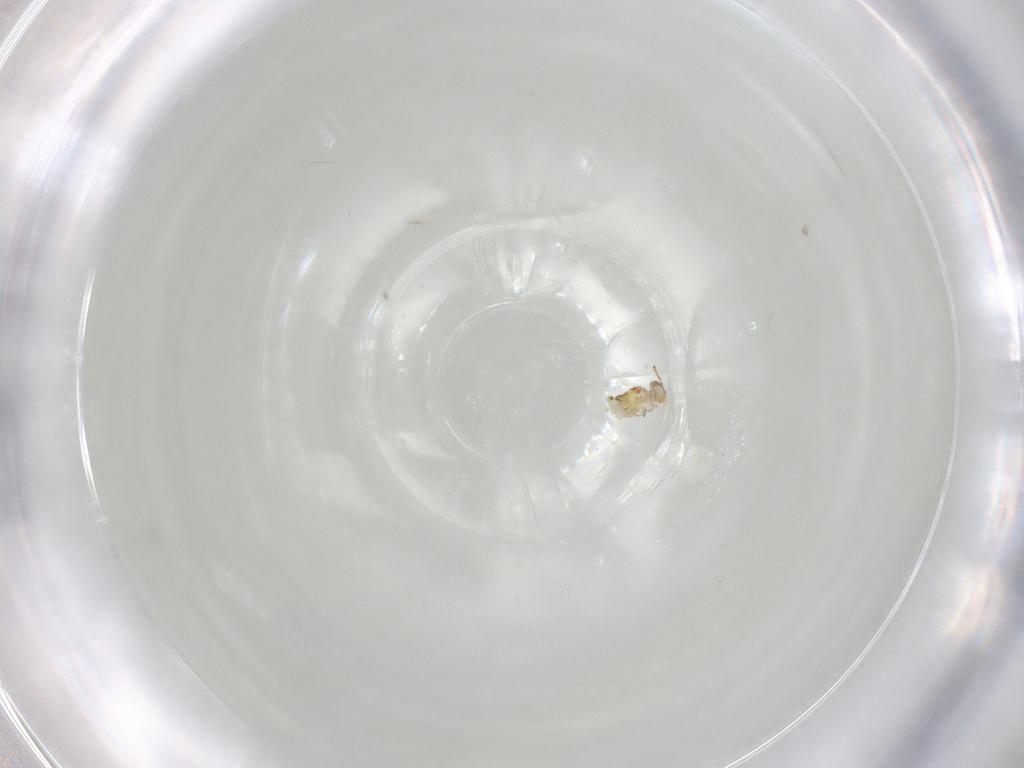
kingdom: Animalia
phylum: Arthropoda
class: Collembola
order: Symphypleona
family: Bourletiellidae
